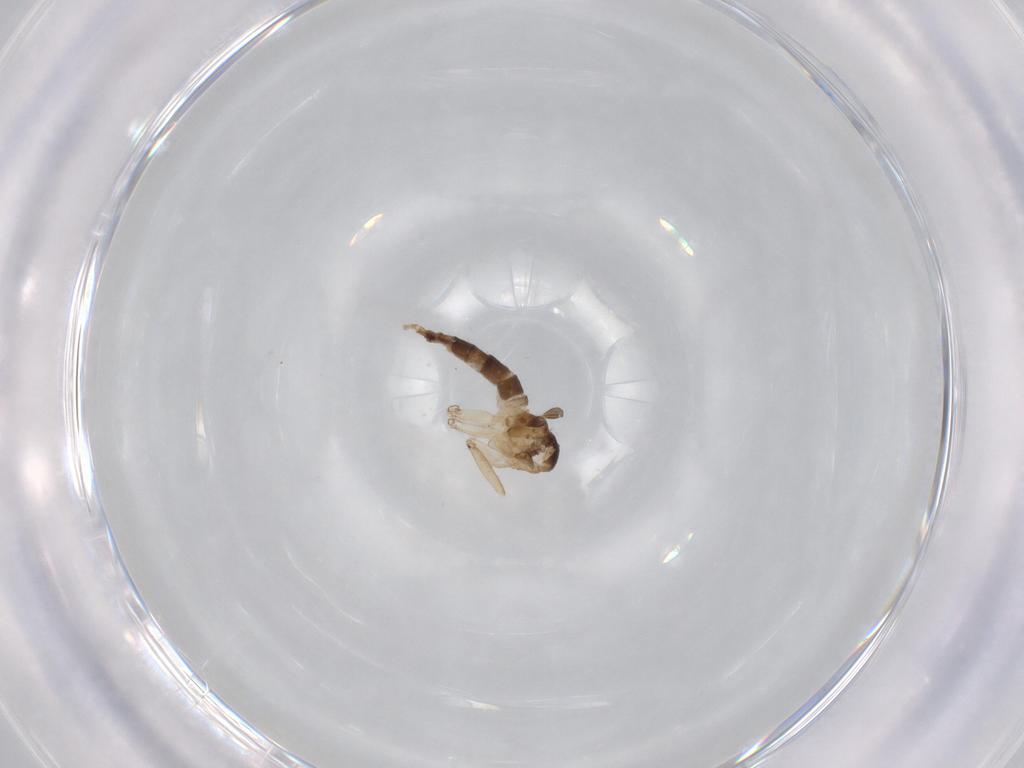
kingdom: Animalia
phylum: Arthropoda
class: Insecta
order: Diptera
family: Sciaridae
